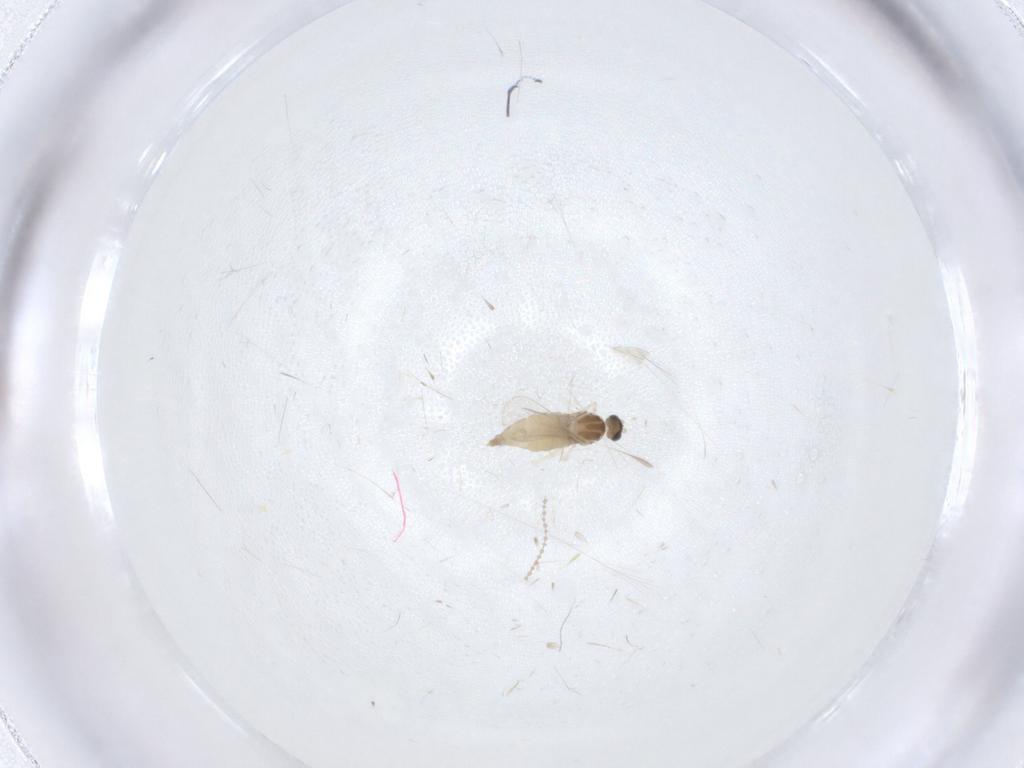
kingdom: Animalia
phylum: Arthropoda
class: Insecta
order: Diptera
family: Cecidomyiidae
